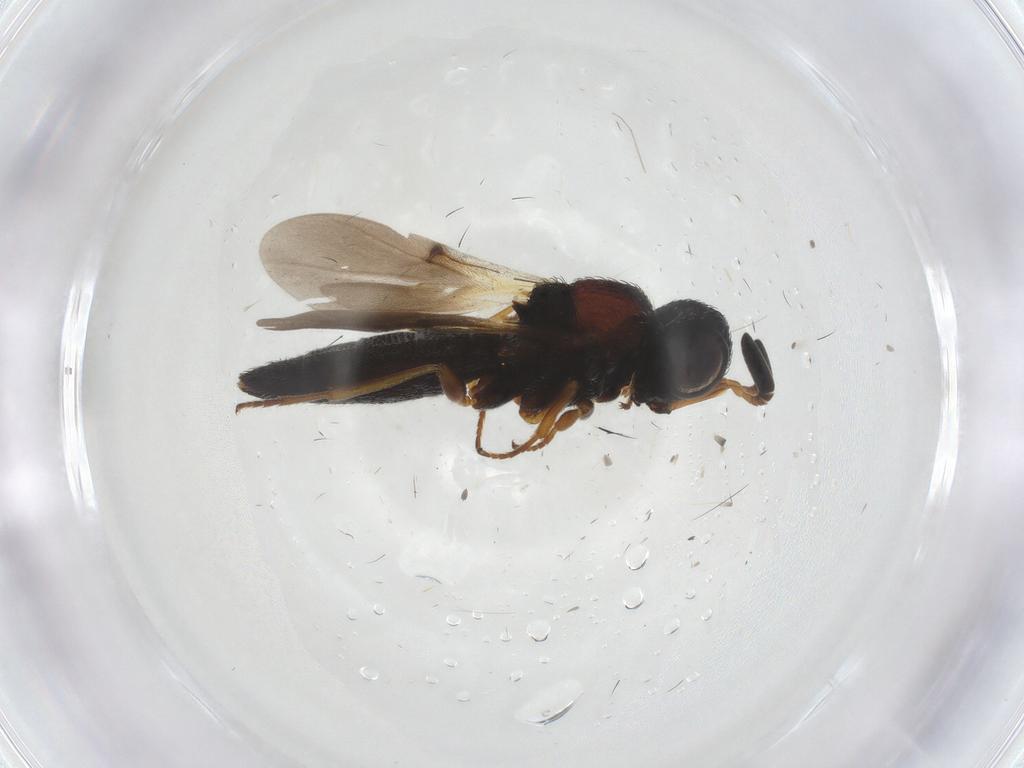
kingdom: Animalia
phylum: Arthropoda
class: Insecta
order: Hymenoptera
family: Scelionidae
